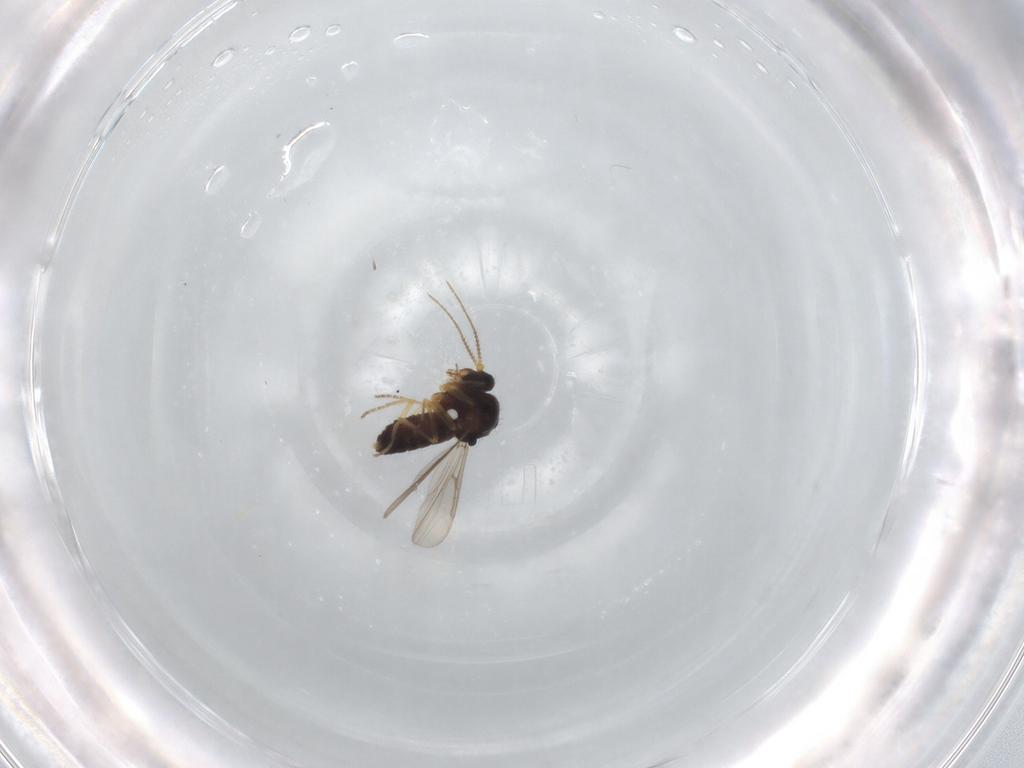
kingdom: Animalia
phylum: Arthropoda
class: Insecta
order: Diptera
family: Ceratopogonidae
